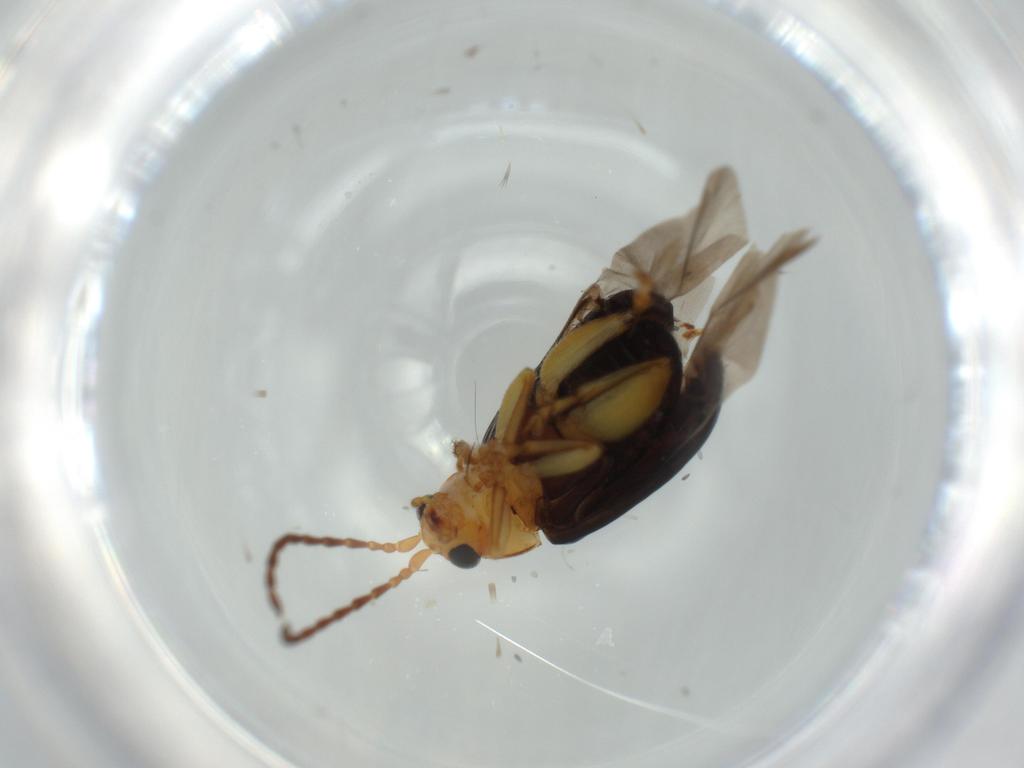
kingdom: Animalia
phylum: Arthropoda
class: Insecta
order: Coleoptera
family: Chrysomelidae
